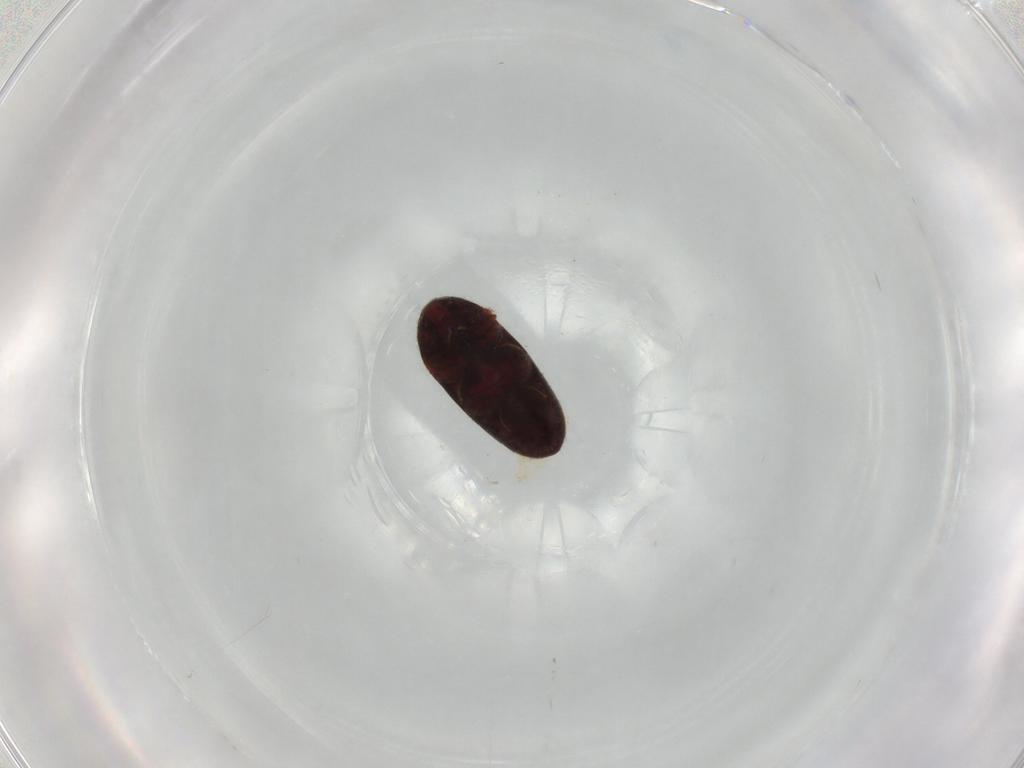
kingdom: Animalia
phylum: Arthropoda
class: Insecta
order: Coleoptera
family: Throscidae
